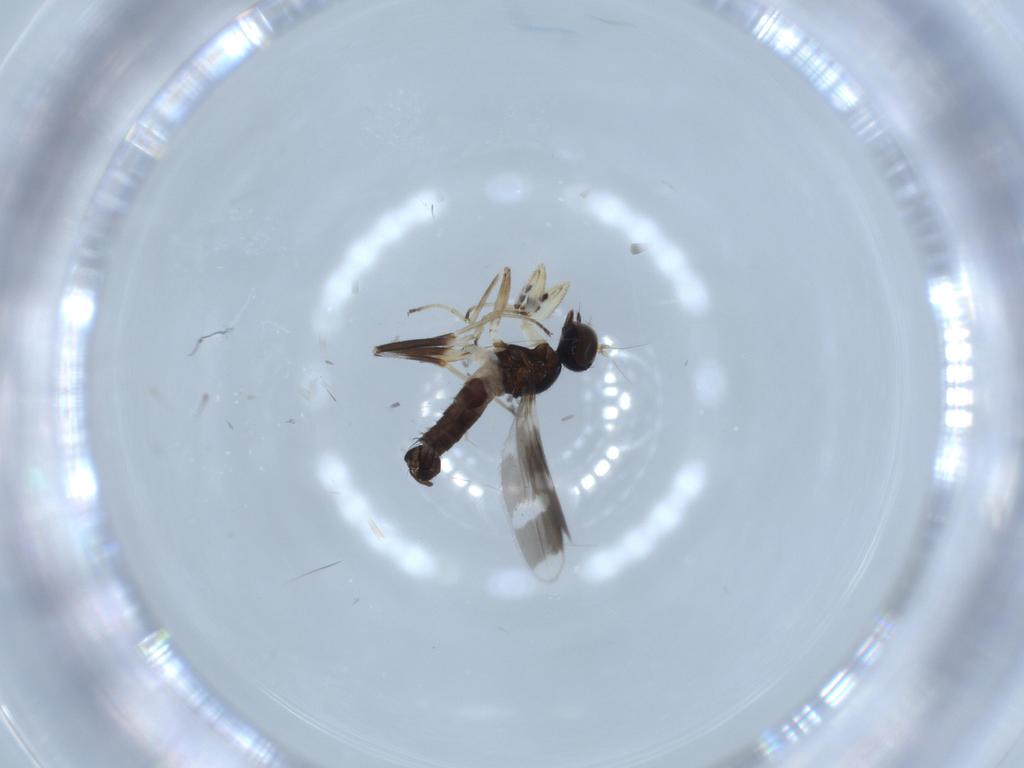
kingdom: Animalia
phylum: Arthropoda
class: Insecta
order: Diptera
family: Hybotidae
